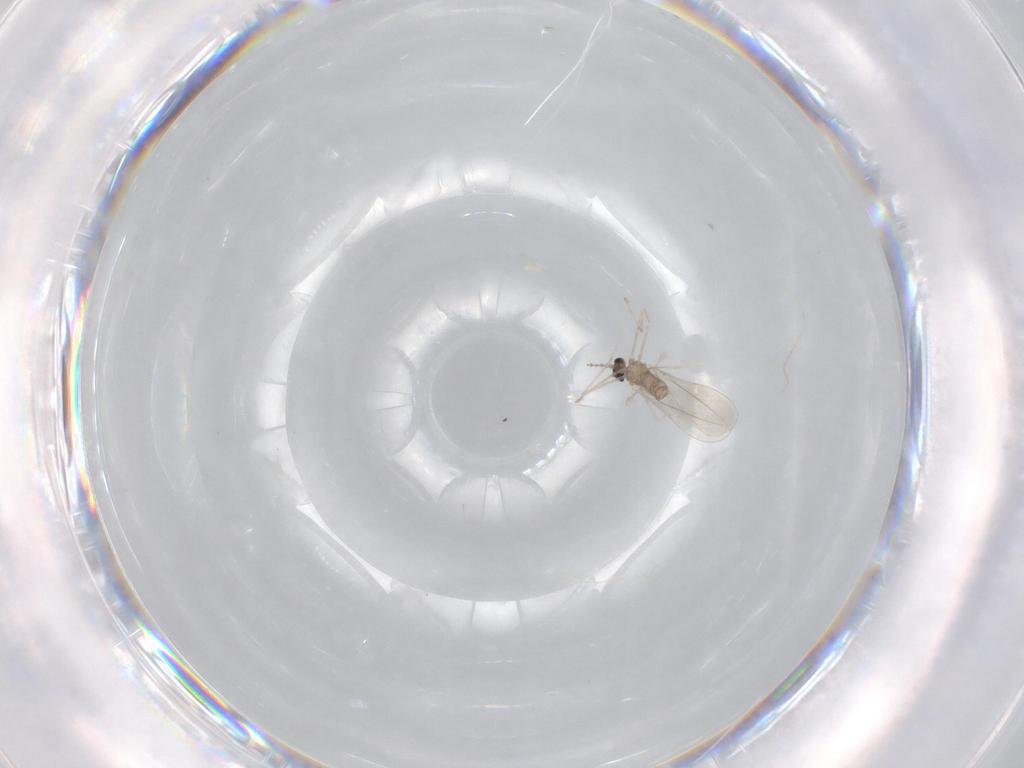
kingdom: Animalia
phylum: Arthropoda
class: Insecta
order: Diptera
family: Cecidomyiidae
